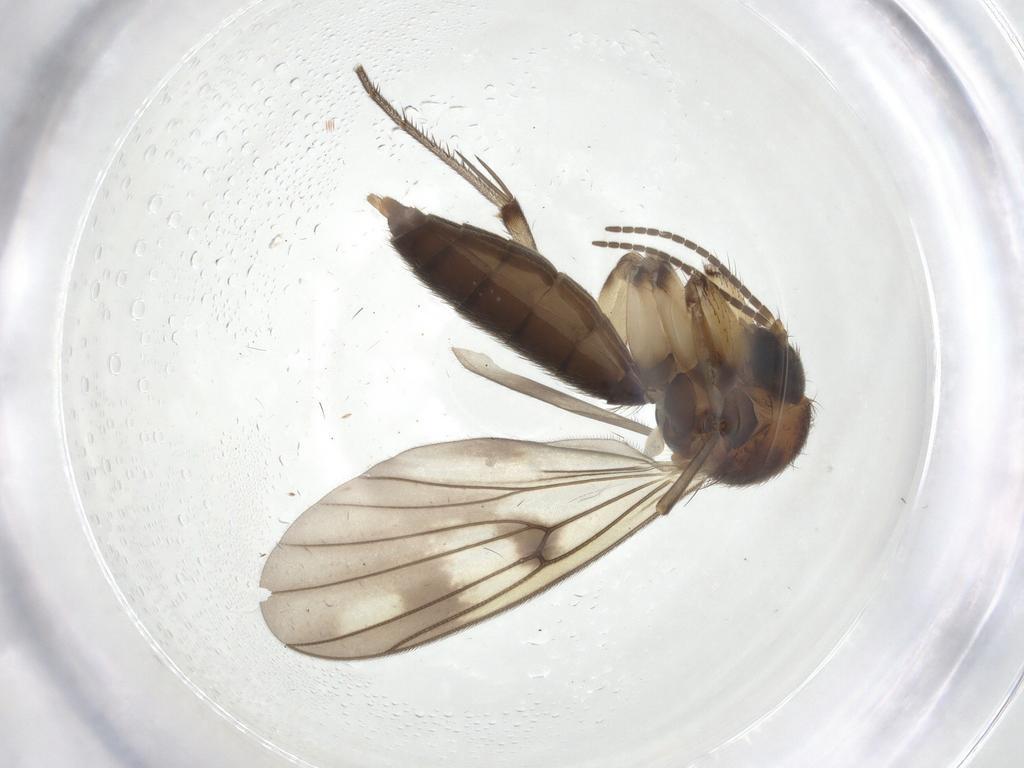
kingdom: Animalia
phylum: Arthropoda
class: Insecta
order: Diptera
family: Mycetophilidae
